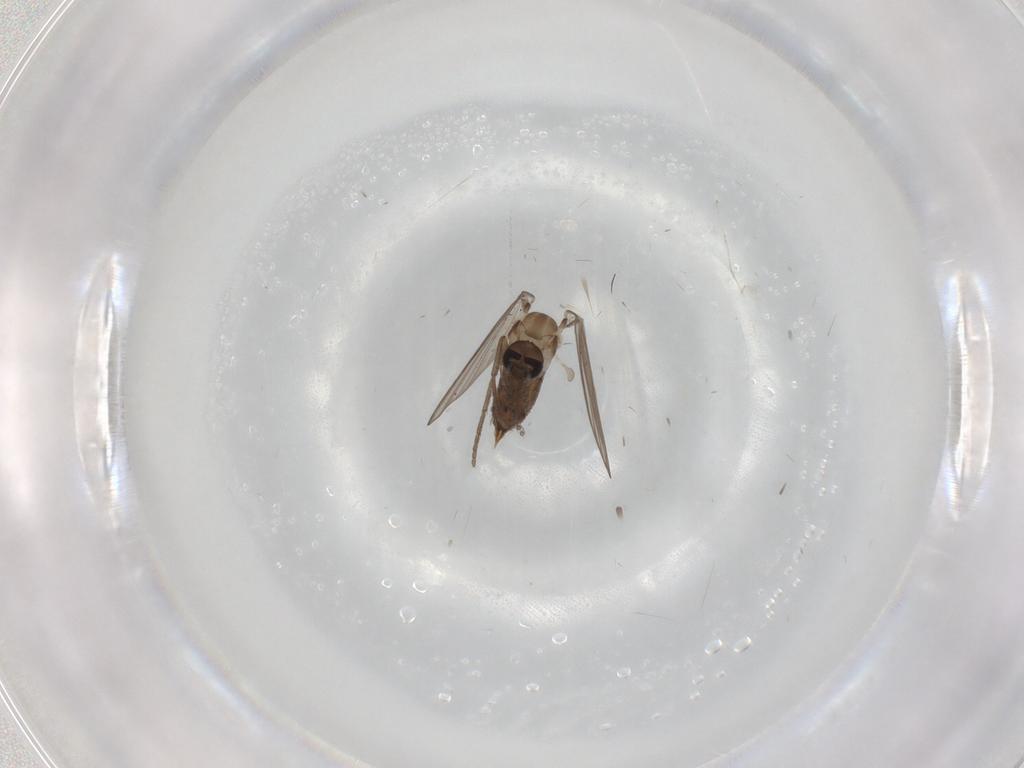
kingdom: Animalia
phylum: Arthropoda
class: Insecta
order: Diptera
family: Psychodidae
